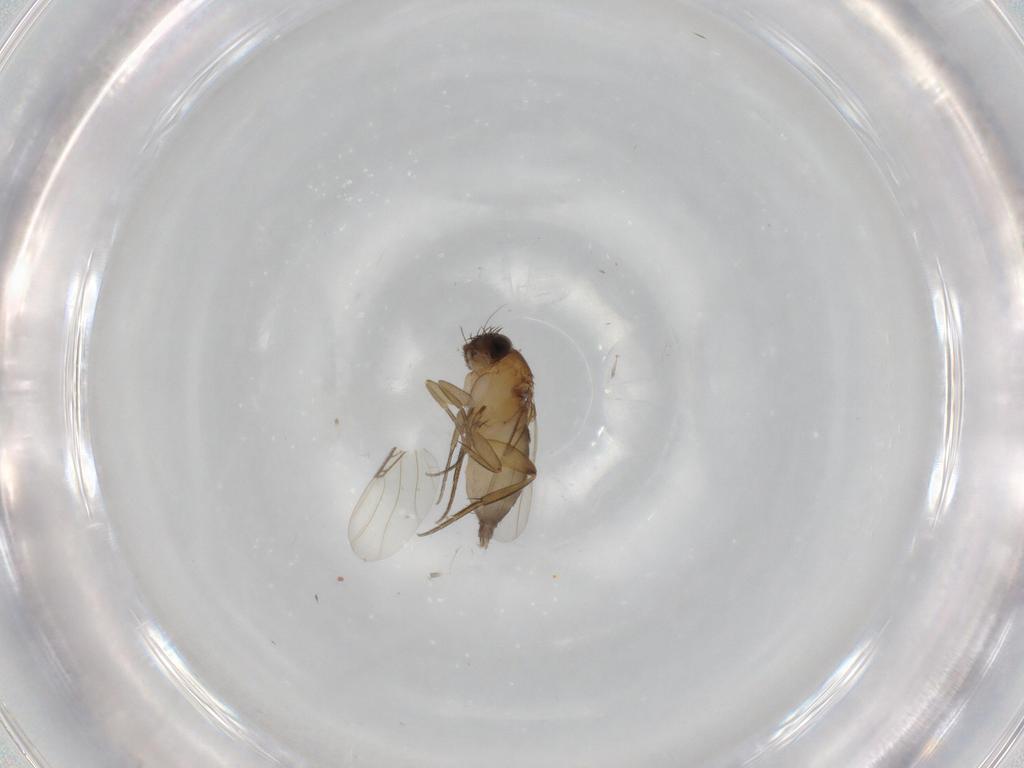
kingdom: Animalia
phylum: Arthropoda
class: Insecta
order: Diptera
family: Phoridae
